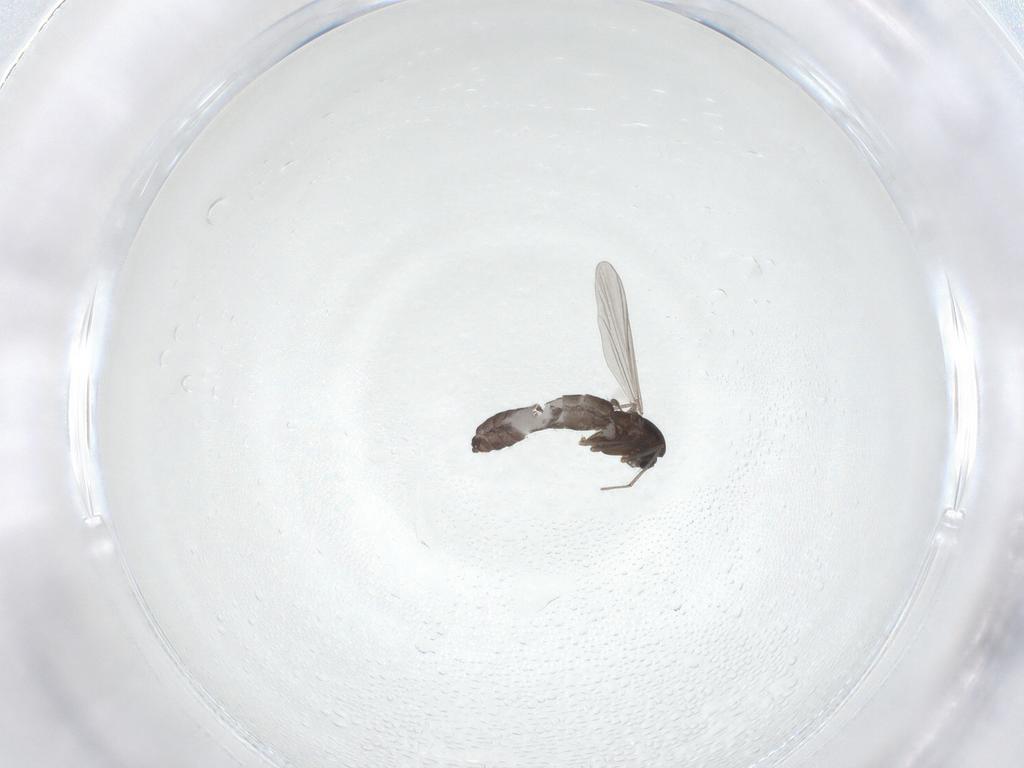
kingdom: Animalia
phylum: Arthropoda
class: Insecta
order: Diptera
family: Chironomidae
